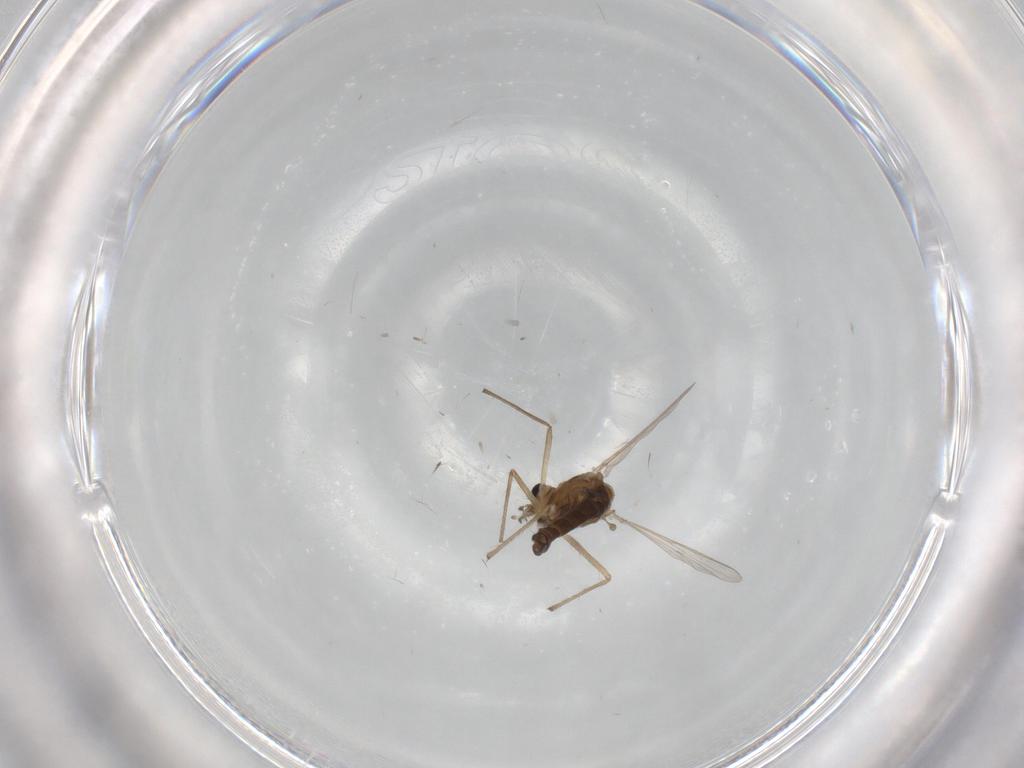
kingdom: Animalia
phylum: Arthropoda
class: Insecta
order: Diptera
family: Chironomidae
